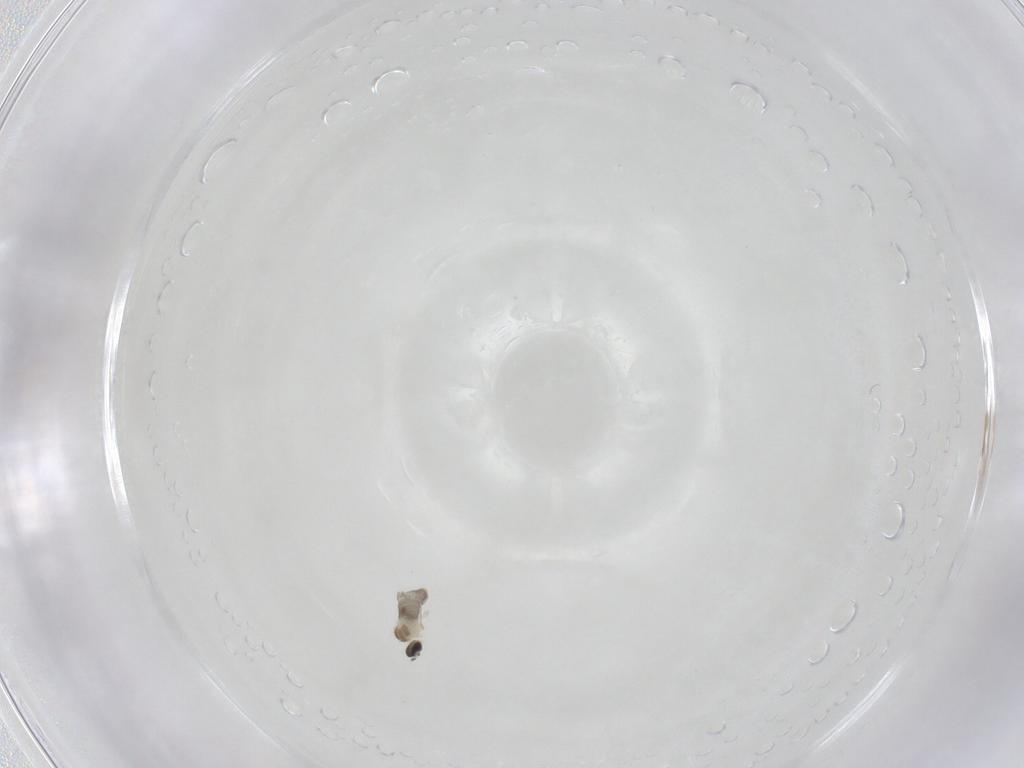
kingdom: Animalia
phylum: Arthropoda
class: Insecta
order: Diptera
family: Cecidomyiidae
